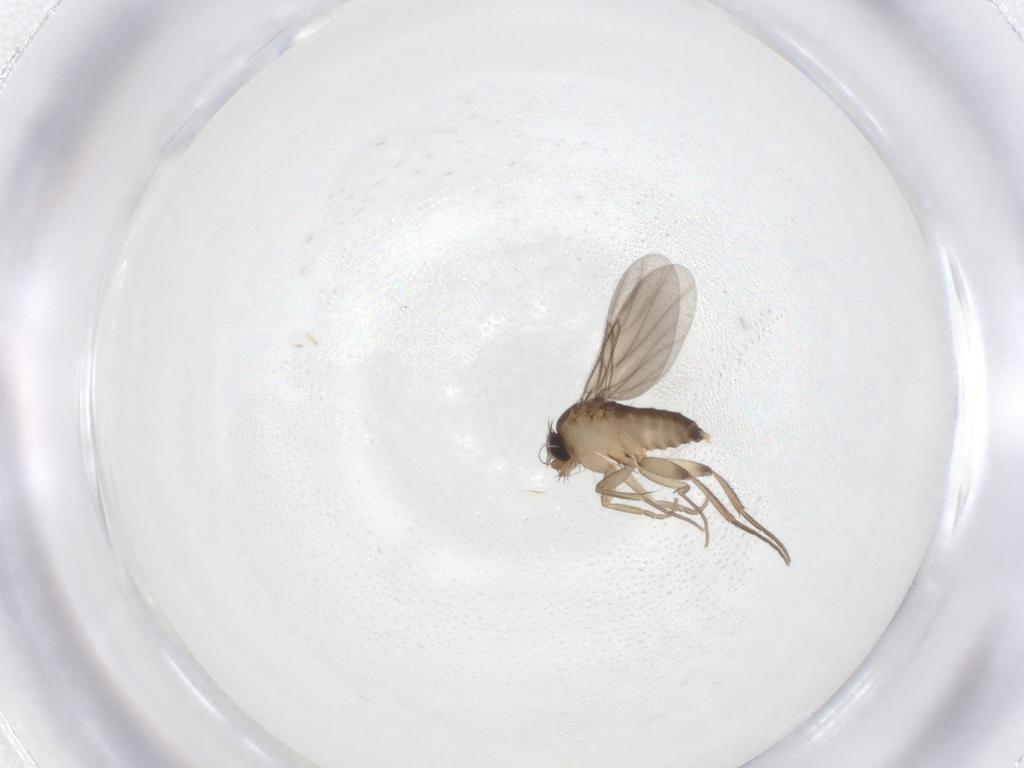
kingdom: Animalia
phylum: Arthropoda
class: Insecta
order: Diptera
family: Phoridae
